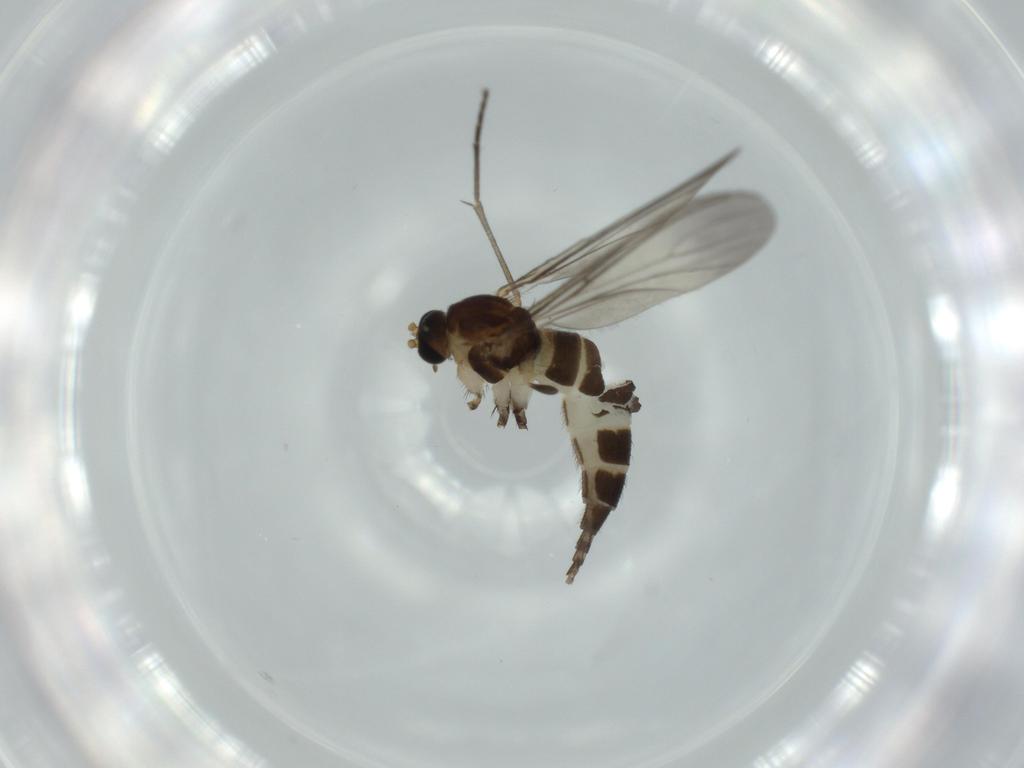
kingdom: Animalia
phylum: Arthropoda
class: Insecta
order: Diptera
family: Sciaridae
